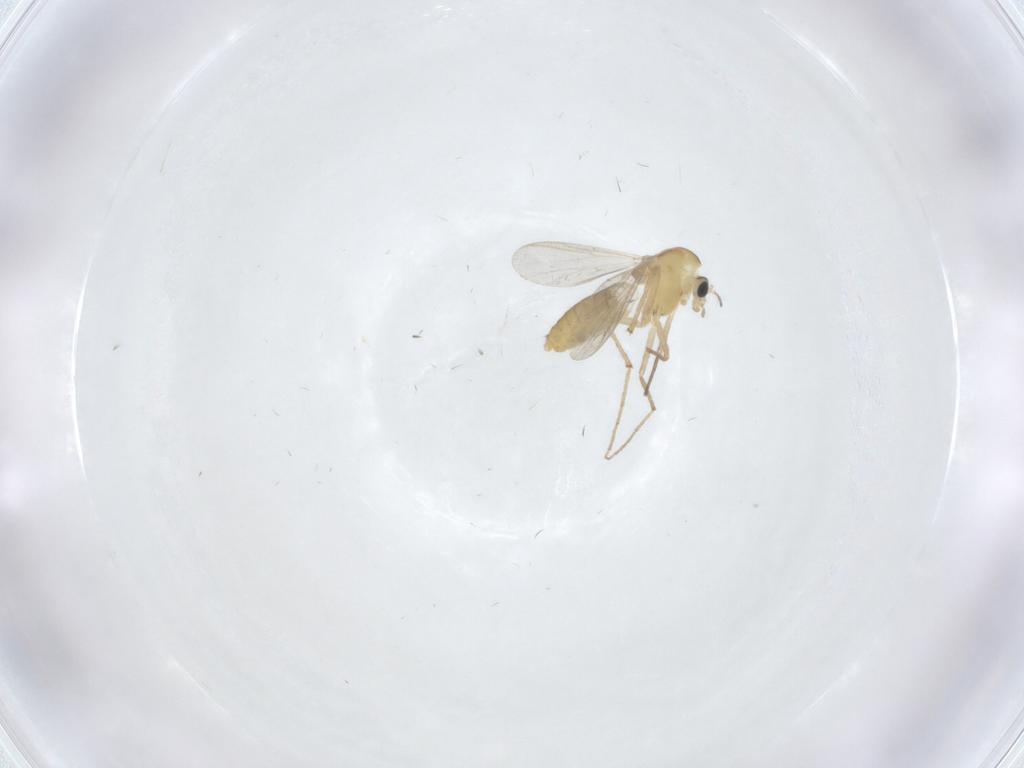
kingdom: Animalia
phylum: Arthropoda
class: Insecta
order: Diptera
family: Chironomidae
